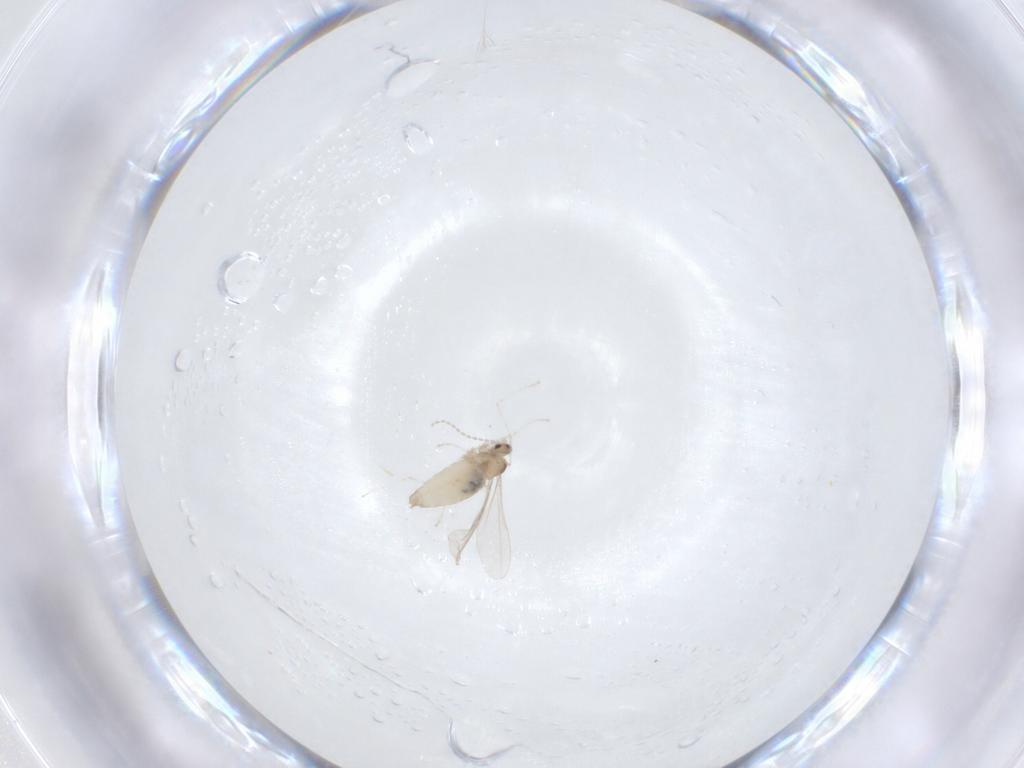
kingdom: Animalia
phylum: Arthropoda
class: Insecta
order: Diptera
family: Cecidomyiidae
